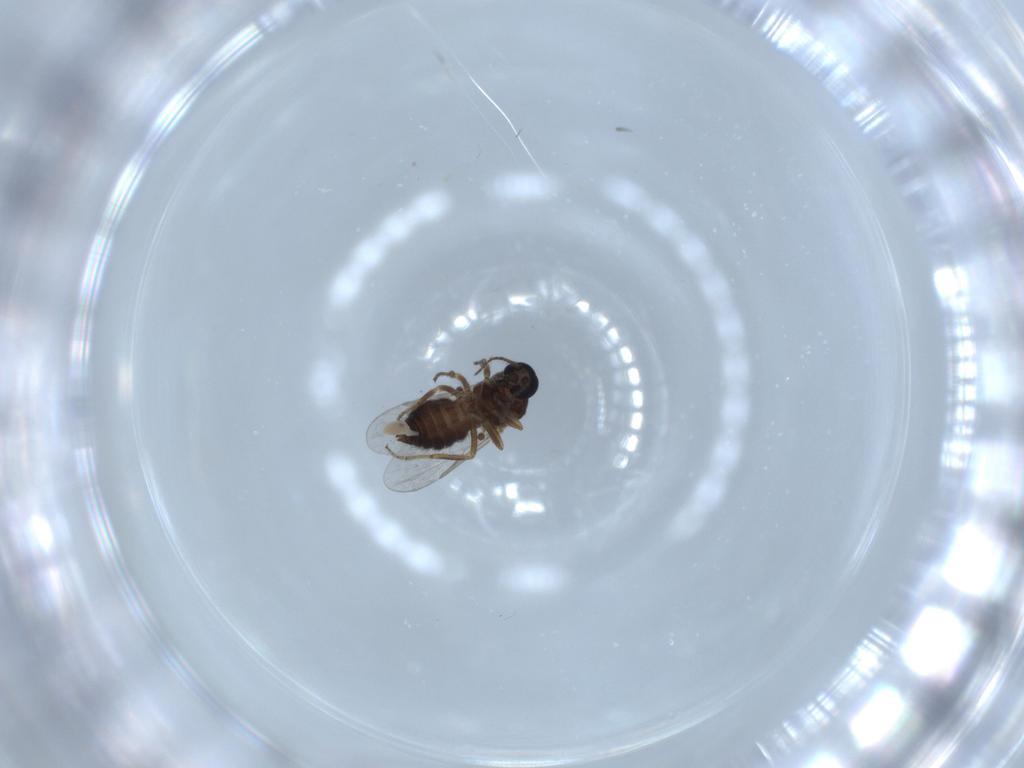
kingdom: Animalia
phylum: Arthropoda
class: Insecta
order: Diptera
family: Ceratopogonidae
